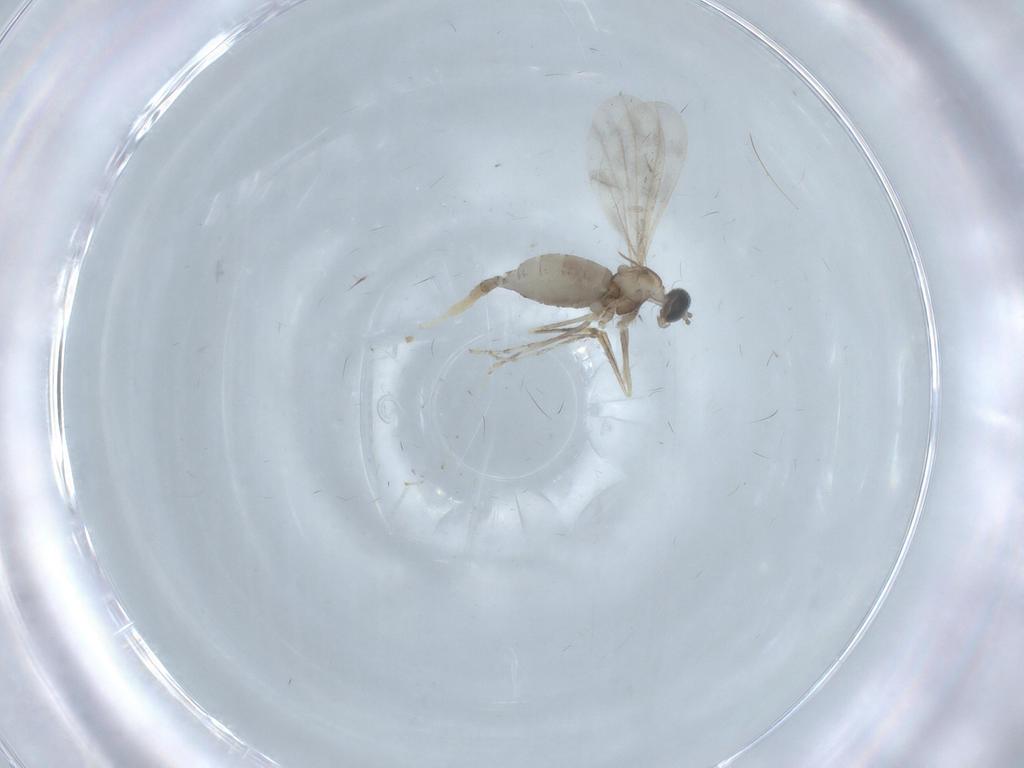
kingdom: Animalia
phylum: Arthropoda
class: Insecta
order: Diptera
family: Cecidomyiidae
